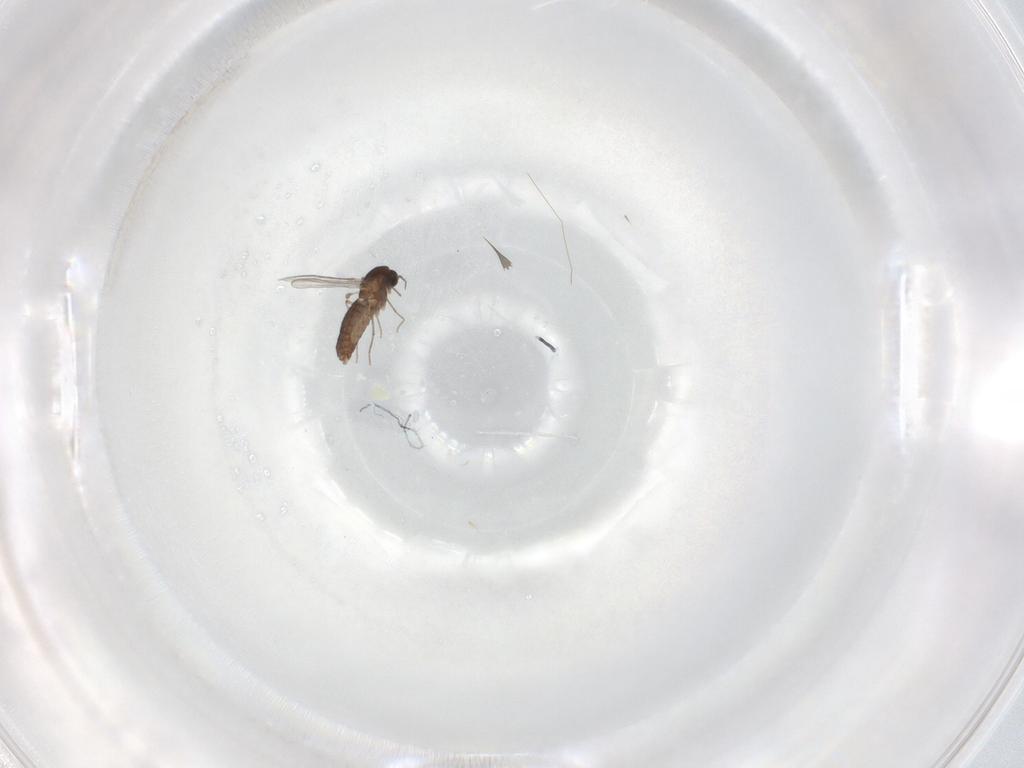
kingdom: Animalia
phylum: Arthropoda
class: Insecta
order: Diptera
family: Chironomidae
